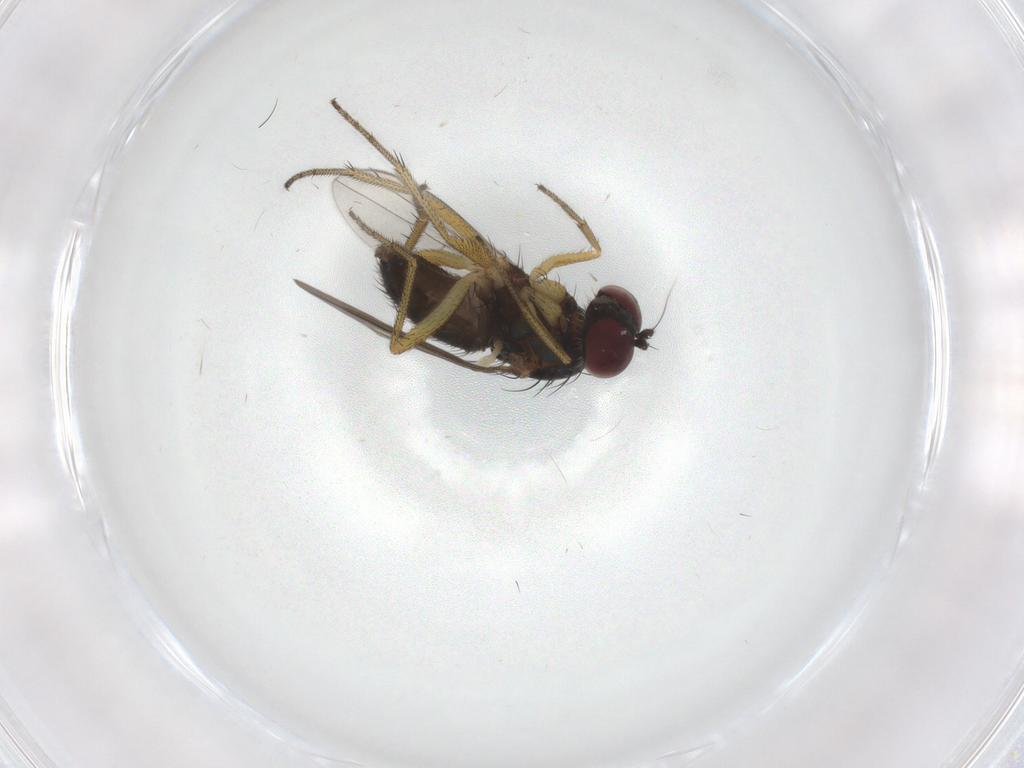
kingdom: Animalia
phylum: Arthropoda
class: Insecta
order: Diptera
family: Dolichopodidae
